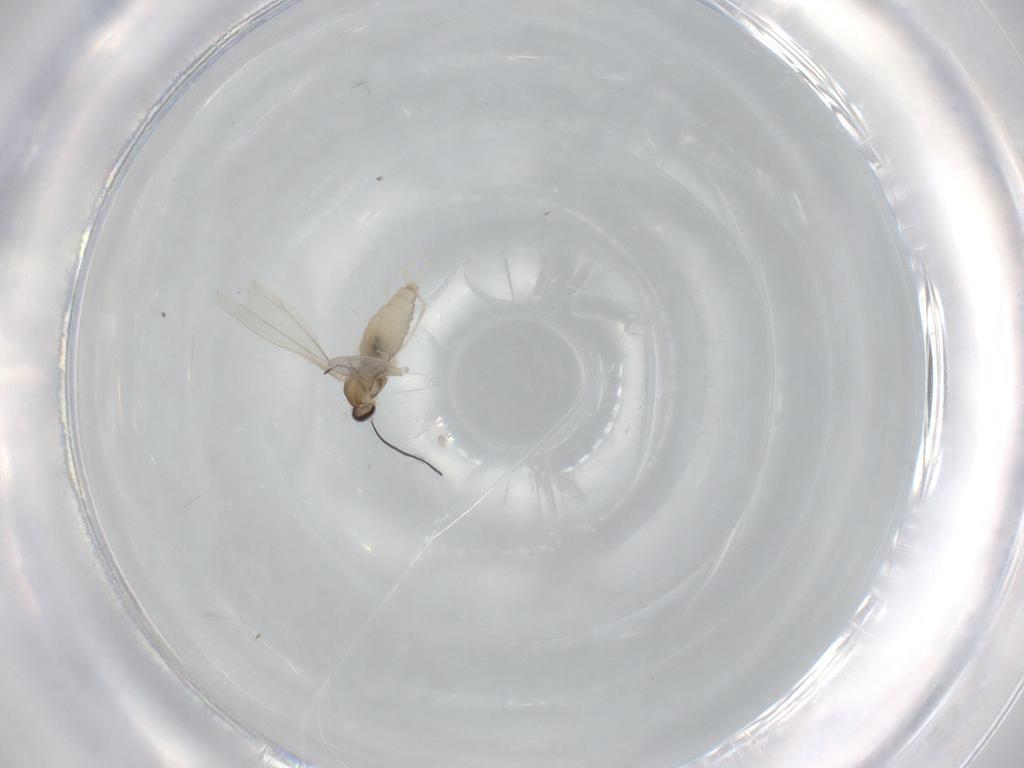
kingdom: Animalia
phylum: Arthropoda
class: Insecta
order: Diptera
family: Cecidomyiidae
